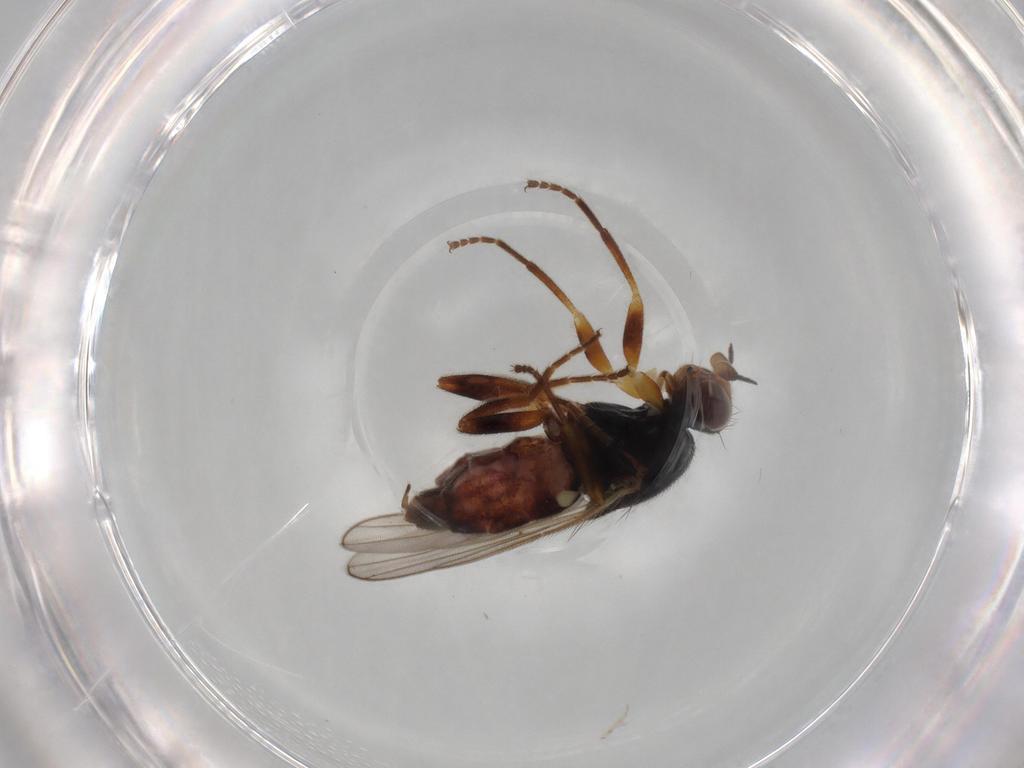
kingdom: Animalia
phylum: Arthropoda
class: Insecta
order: Diptera
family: Chloropidae
